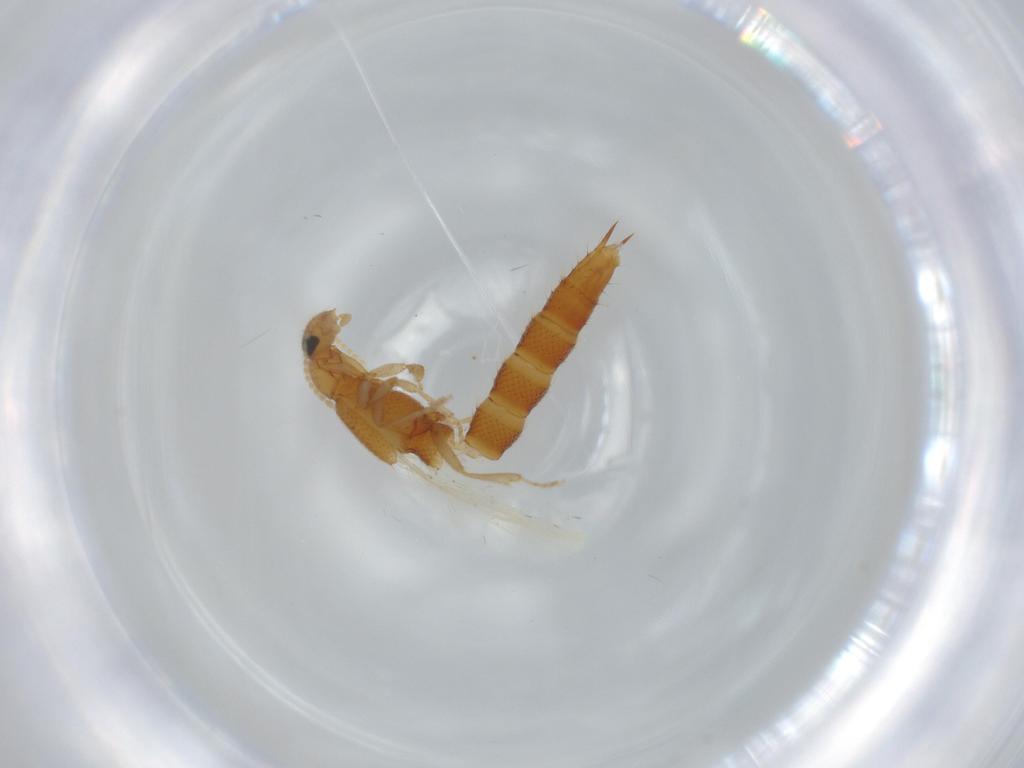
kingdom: Animalia
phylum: Arthropoda
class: Insecta
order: Coleoptera
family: Staphylinidae
